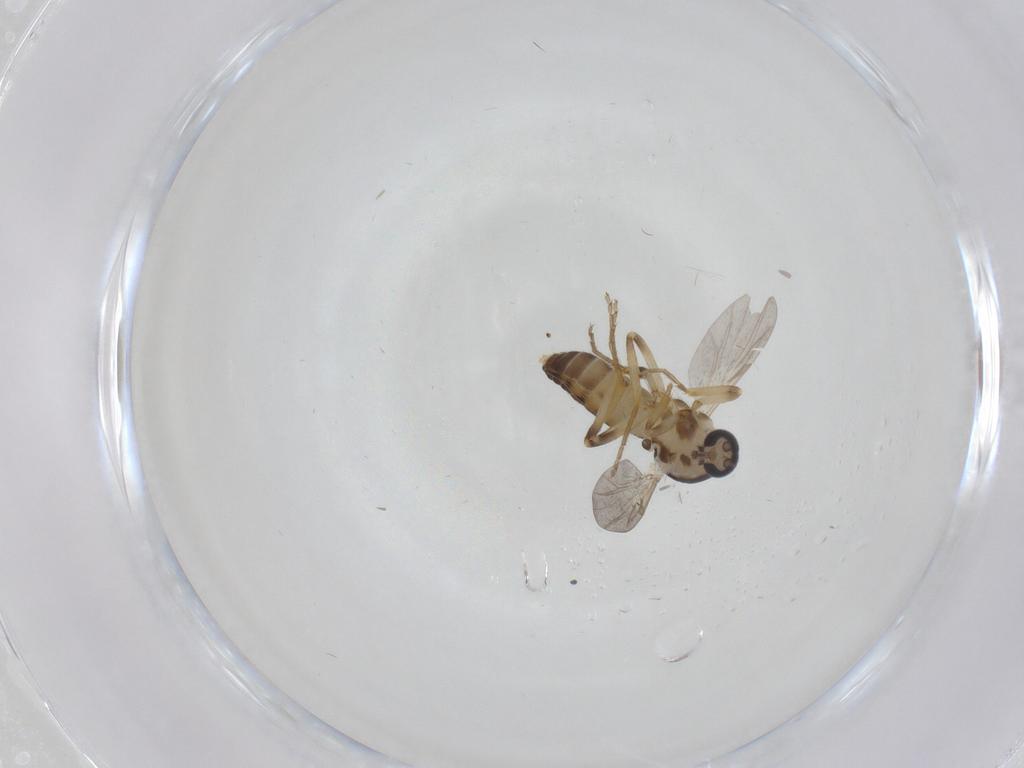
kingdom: Animalia
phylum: Arthropoda
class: Insecta
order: Diptera
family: Ceratopogonidae
